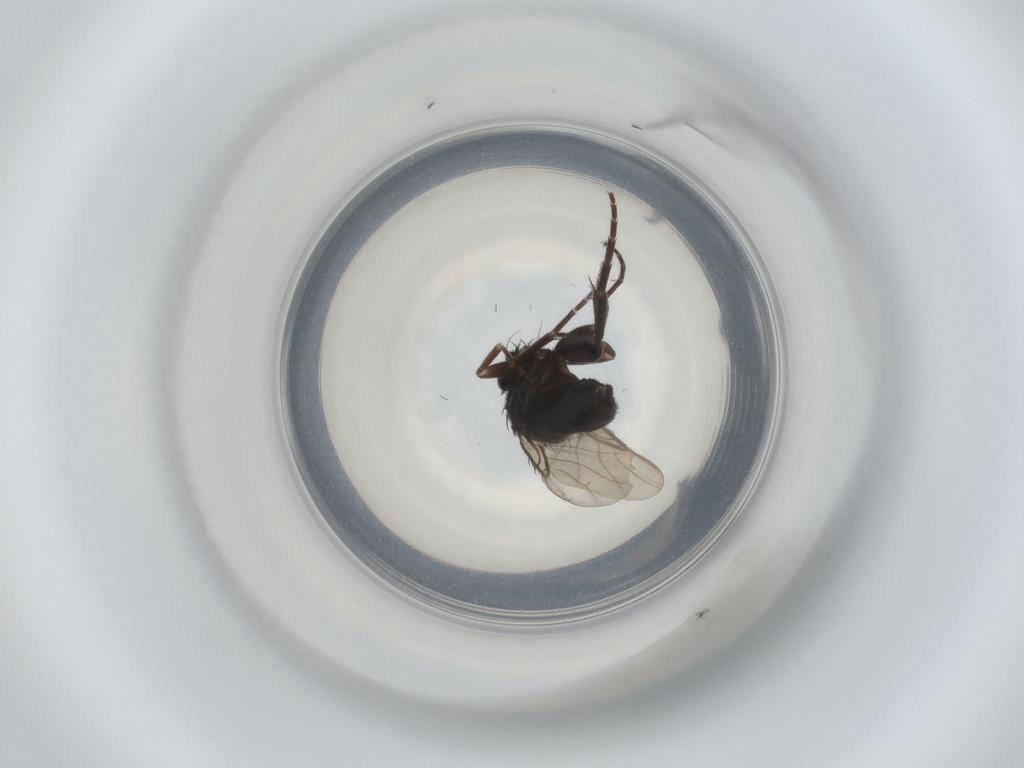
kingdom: Animalia
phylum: Arthropoda
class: Insecta
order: Diptera
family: Phoridae
